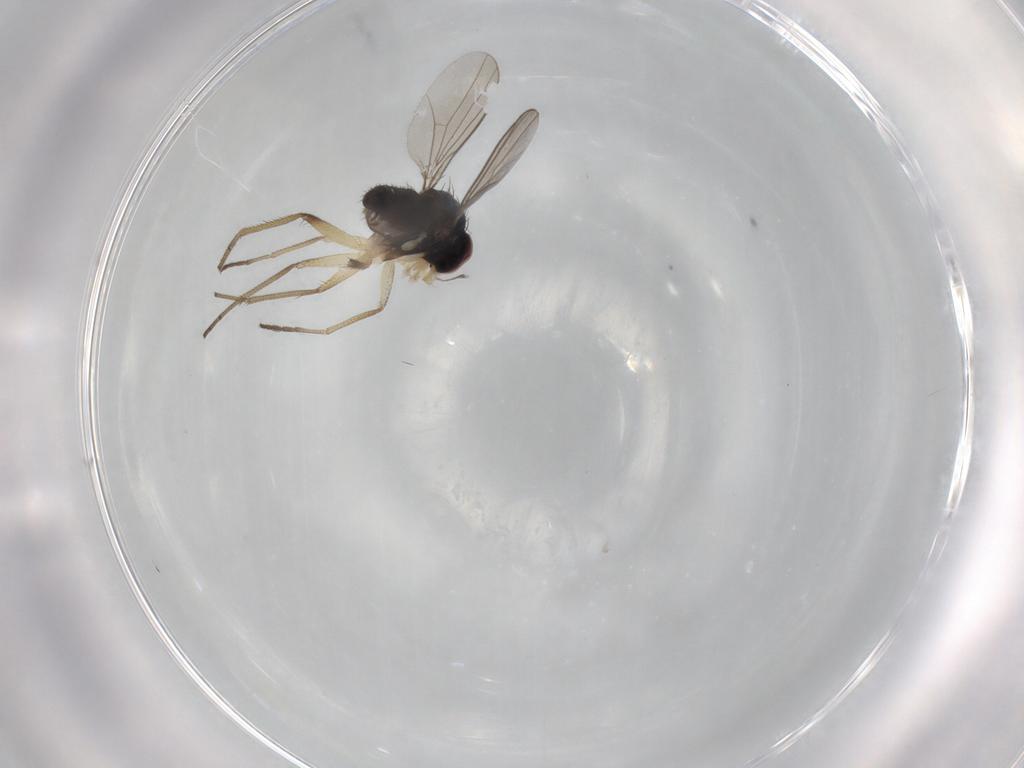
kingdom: Animalia
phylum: Arthropoda
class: Insecta
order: Diptera
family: Dolichopodidae
